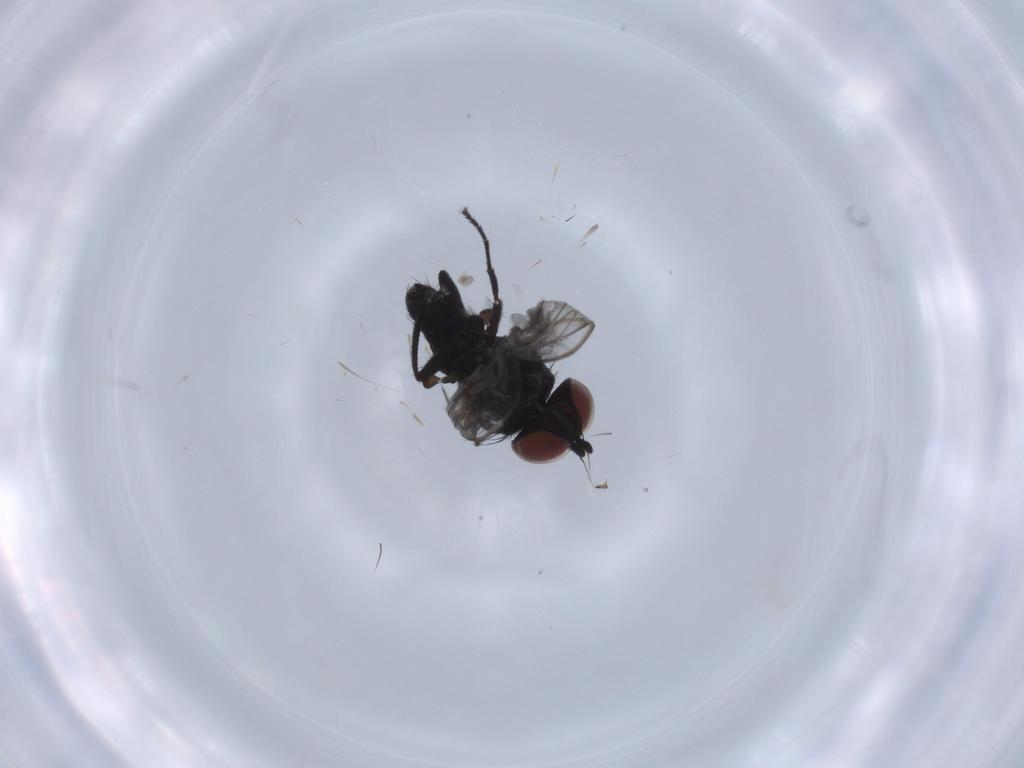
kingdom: Animalia
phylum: Arthropoda
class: Insecta
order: Diptera
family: Milichiidae
